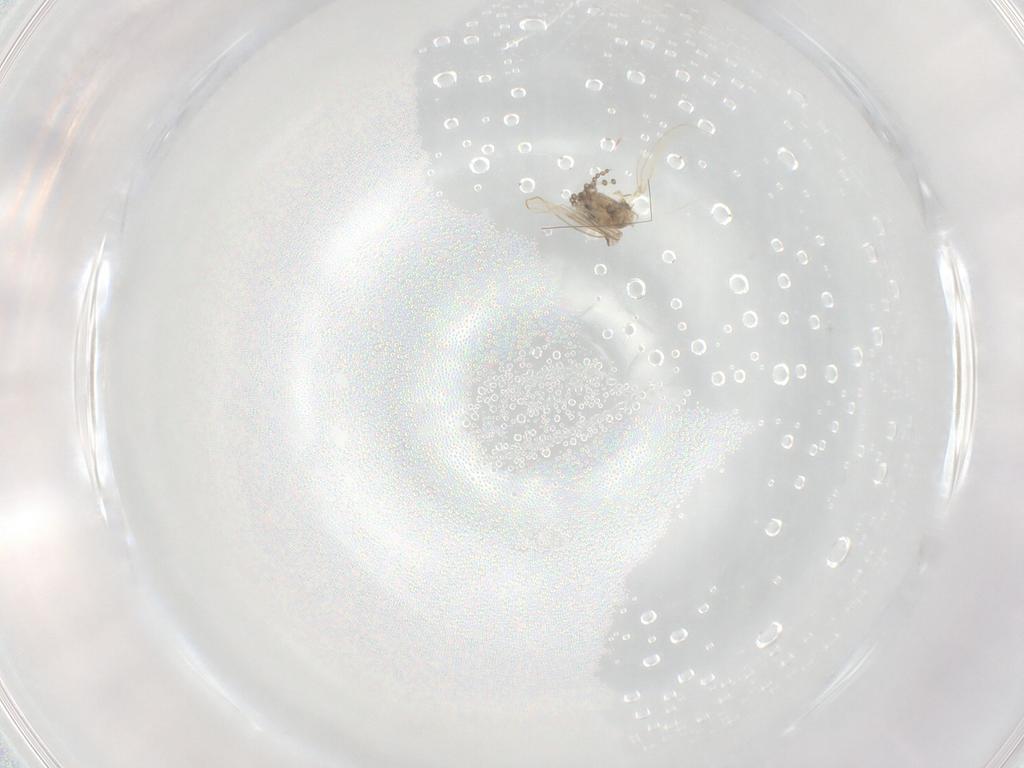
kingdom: Animalia
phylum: Arthropoda
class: Insecta
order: Diptera
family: Psychodidae
